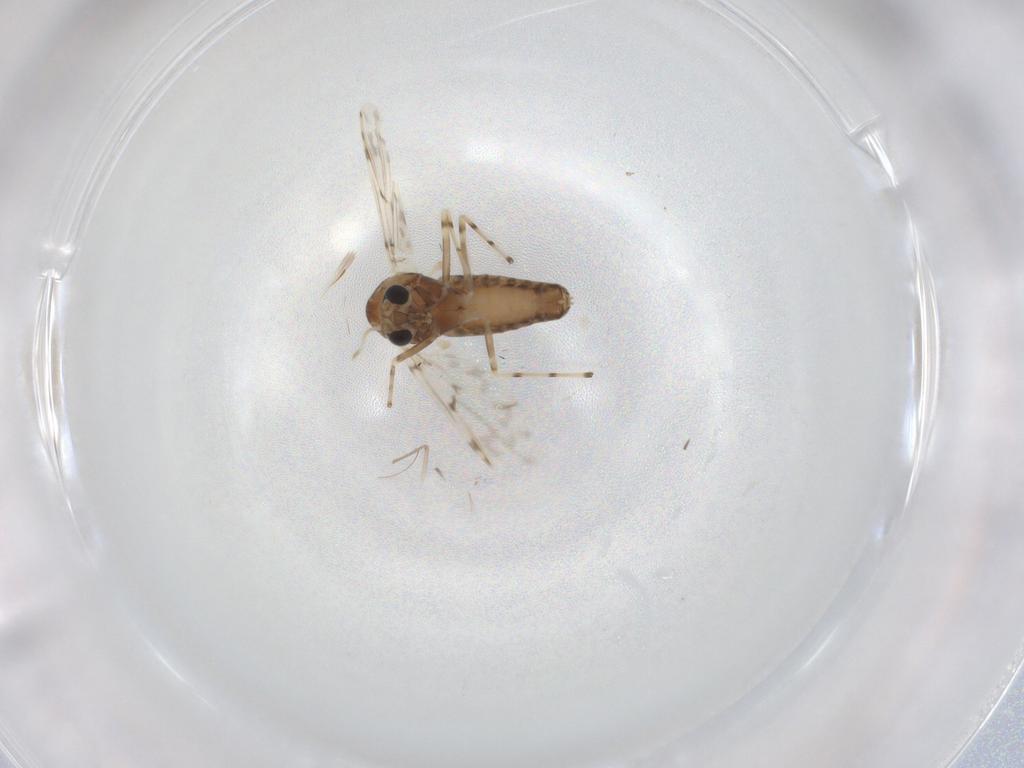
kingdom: Animalia
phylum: Arthropoda
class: Insecta
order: Diptera
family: Chironomidae
